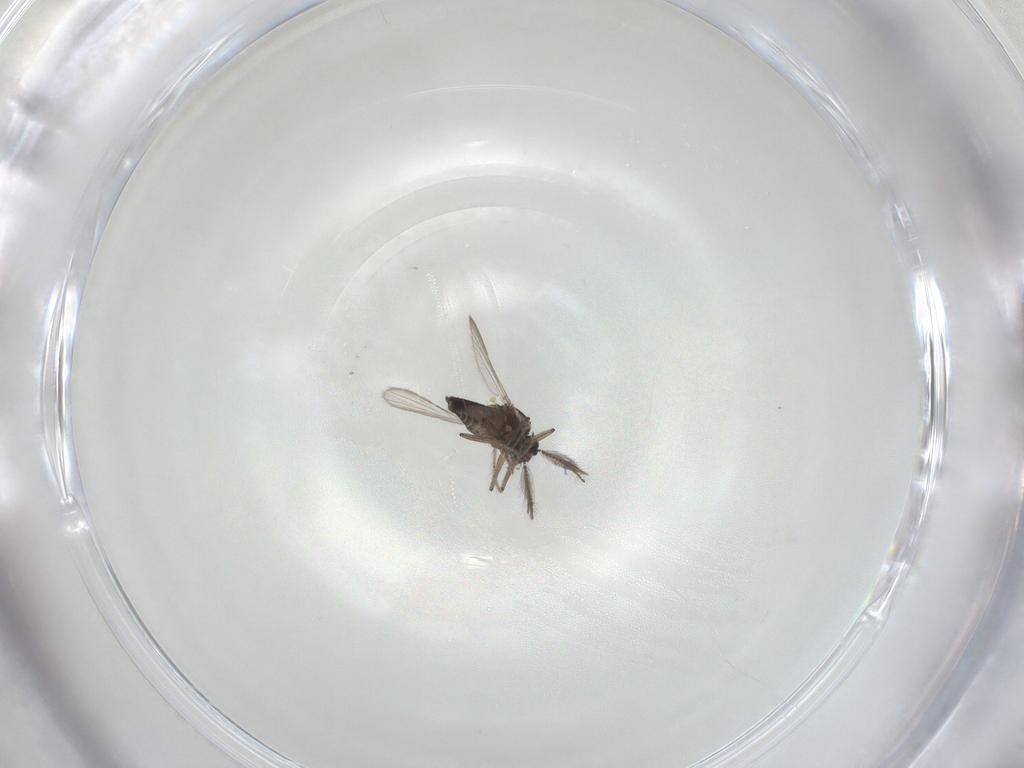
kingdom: Animalia
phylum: Arthropoda
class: Insecta
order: Diptera
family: Ceratopogonidae
